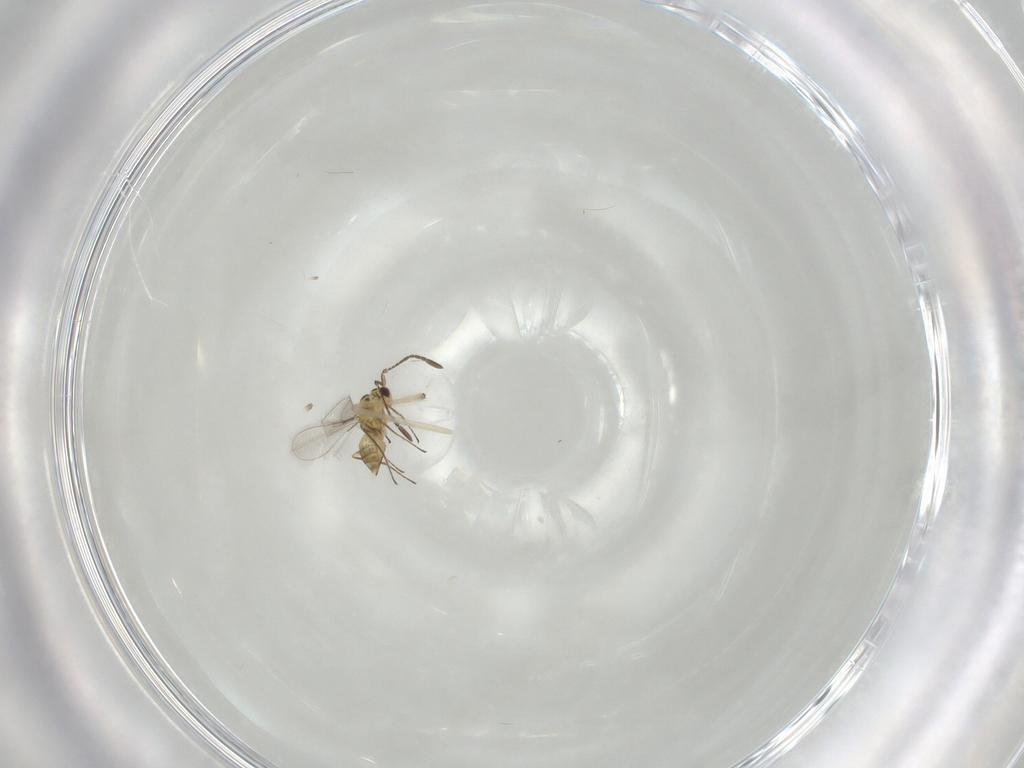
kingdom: Animalia
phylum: Arthropoda
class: Insecta
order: Hymenoptera
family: Mymaridae
